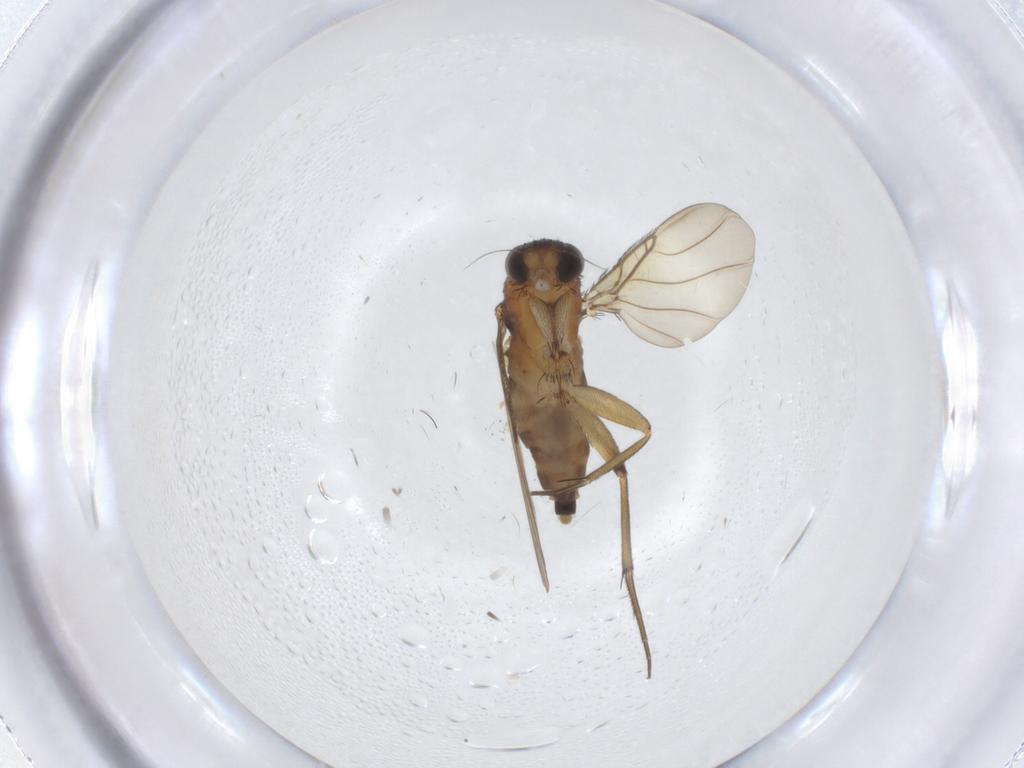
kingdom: Animalia
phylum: Arthropoda
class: Insecta
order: Diptera
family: Phoridae
